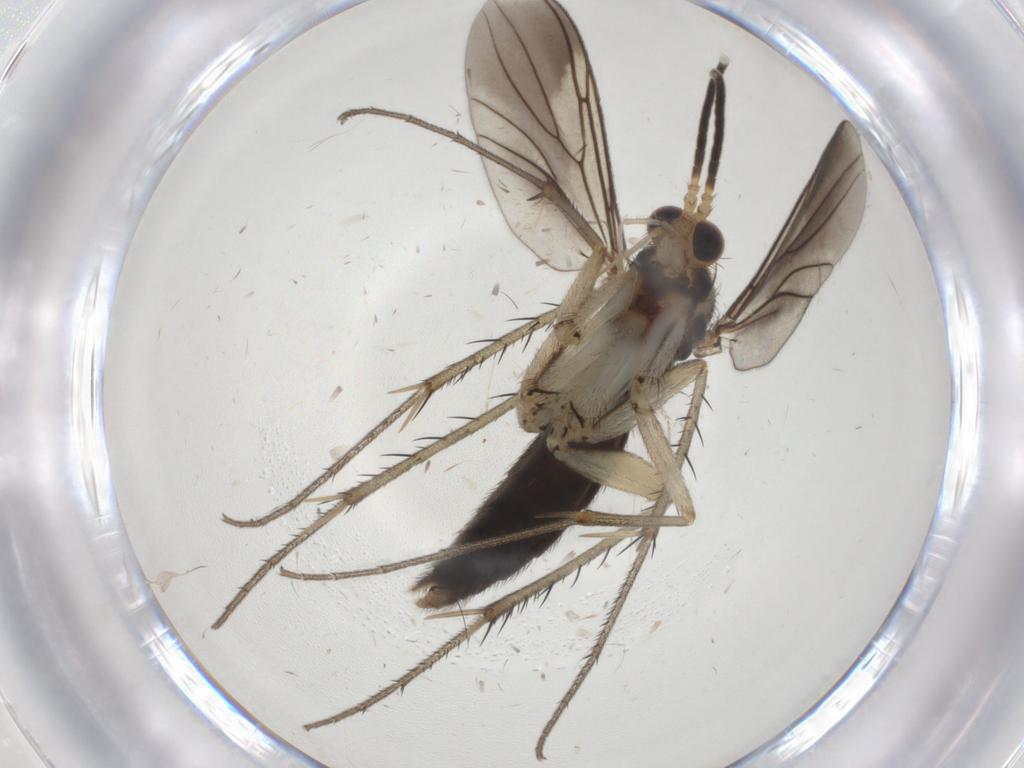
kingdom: Animalia
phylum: Arthropoda
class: Insecta
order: Diptera
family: Mycetophilidae
